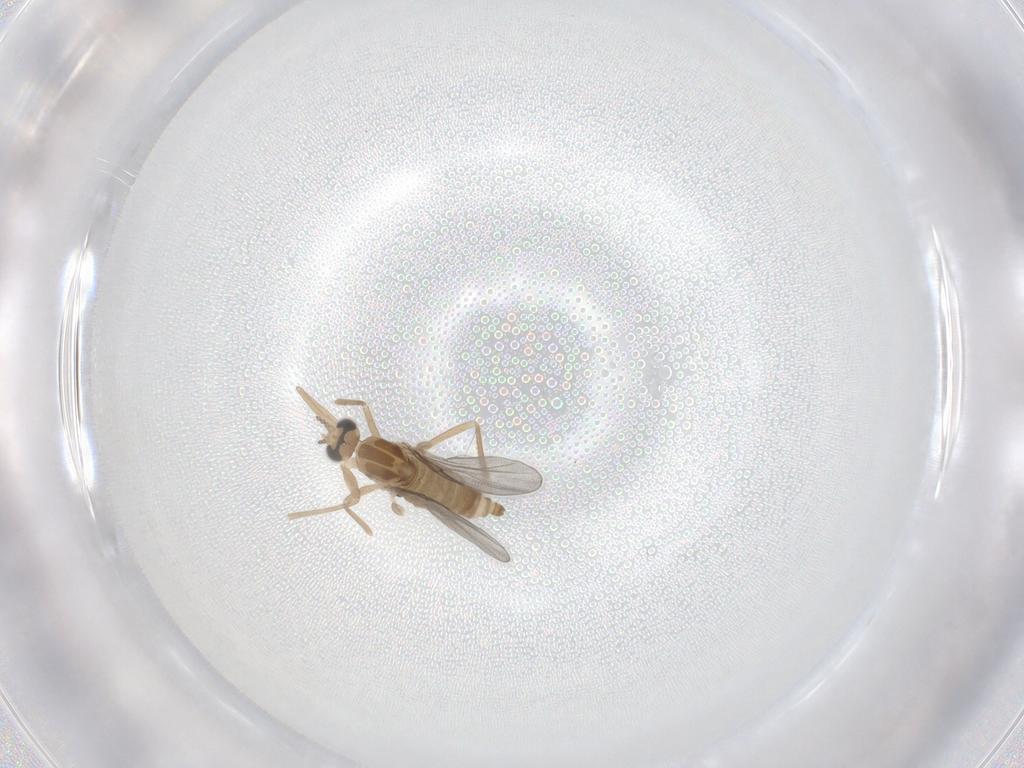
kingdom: Animalia
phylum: Arthropoda
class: Insecta
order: Diptera
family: Cecidomyiidae
